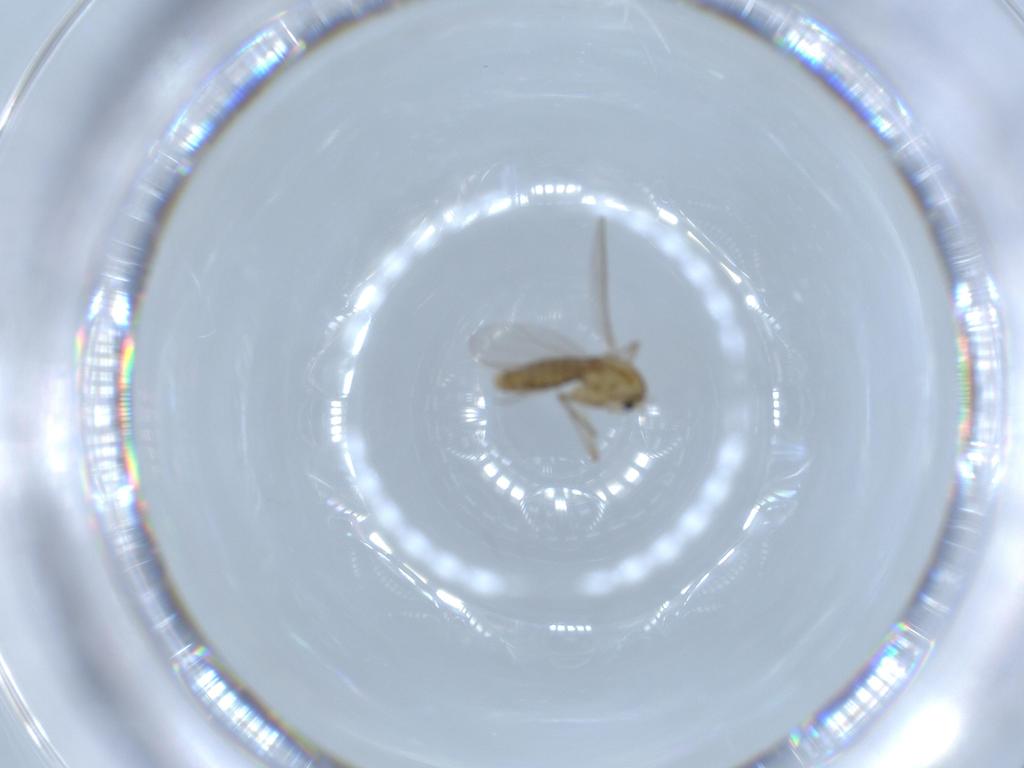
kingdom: Animalia
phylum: Arthropoda
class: Insecta
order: Diptera
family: Chironomidae
